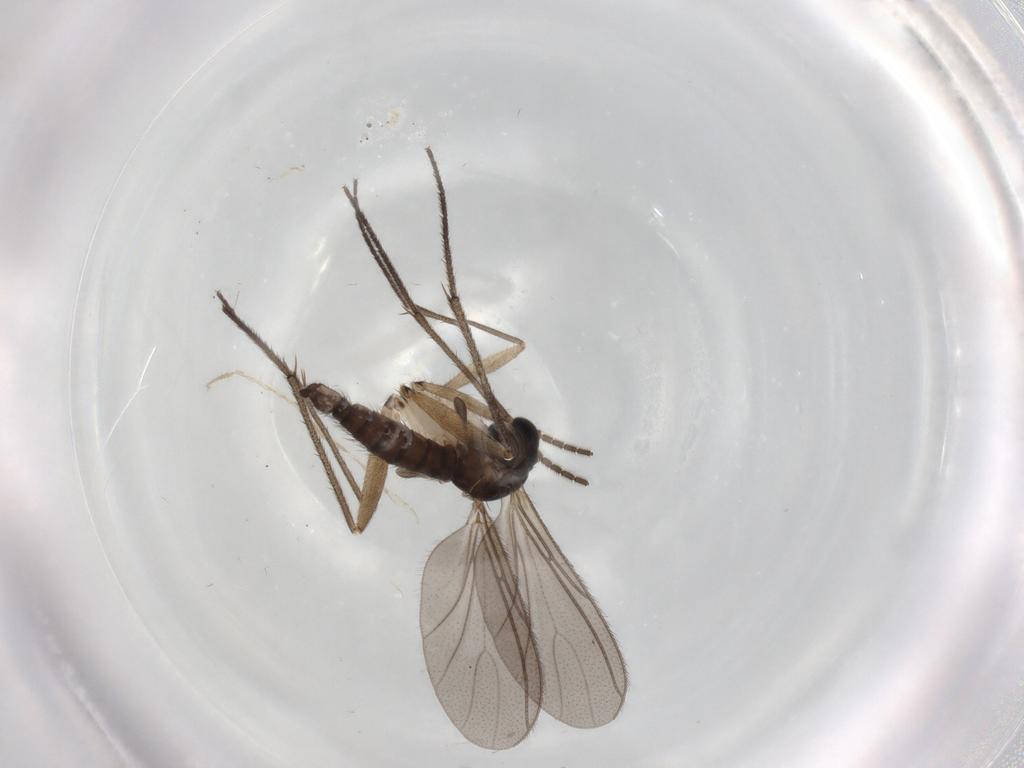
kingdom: Animalia
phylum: Arthropoda
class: Insecta
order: Diptera
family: Sciaridae
